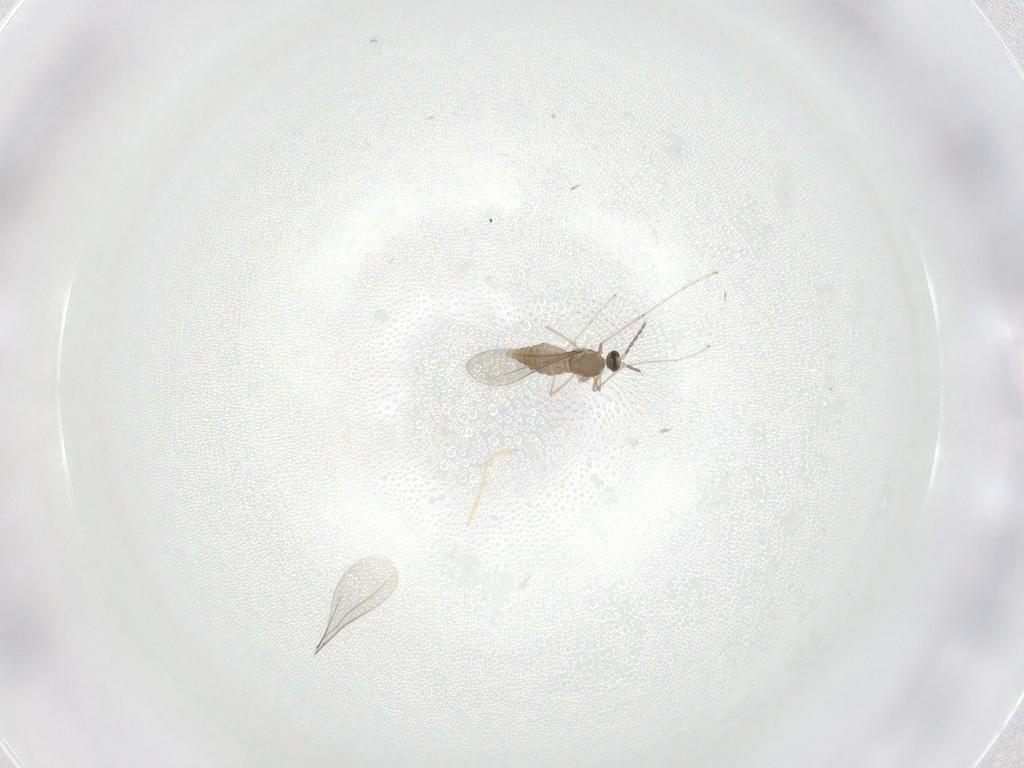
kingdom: Animalia
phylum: Arthropoda
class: Insecta
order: Diptera
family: Cecidomyiidae
